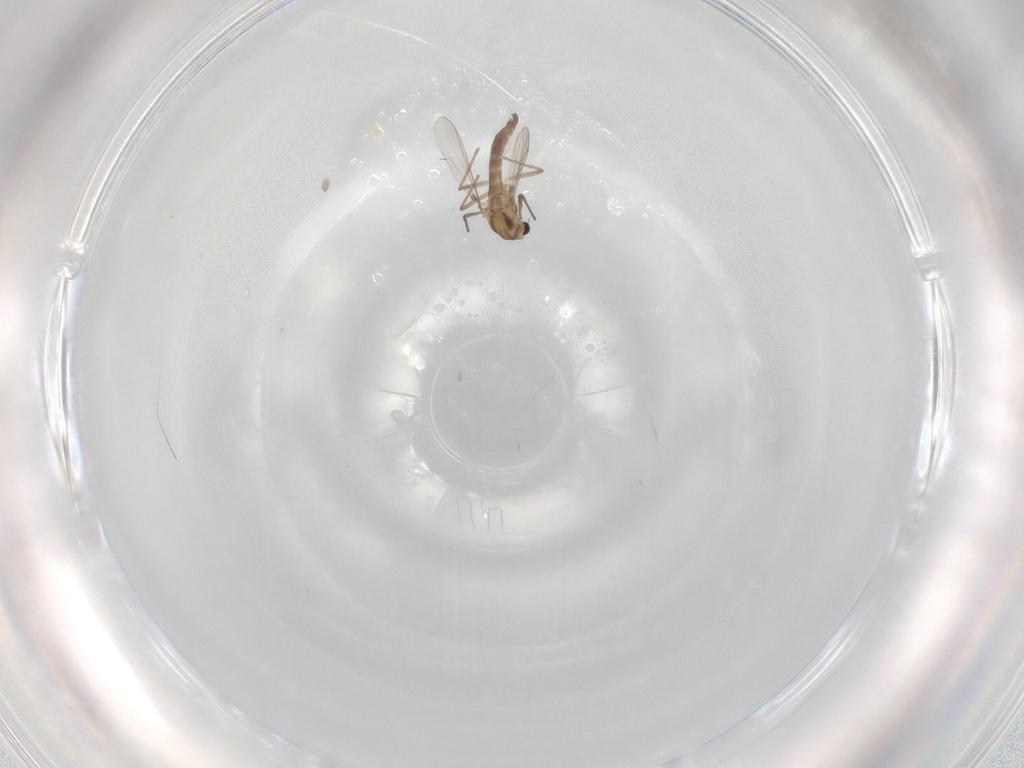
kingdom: Animalia
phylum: Arthropoda
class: Insecta
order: Diptera
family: Chironomidae
